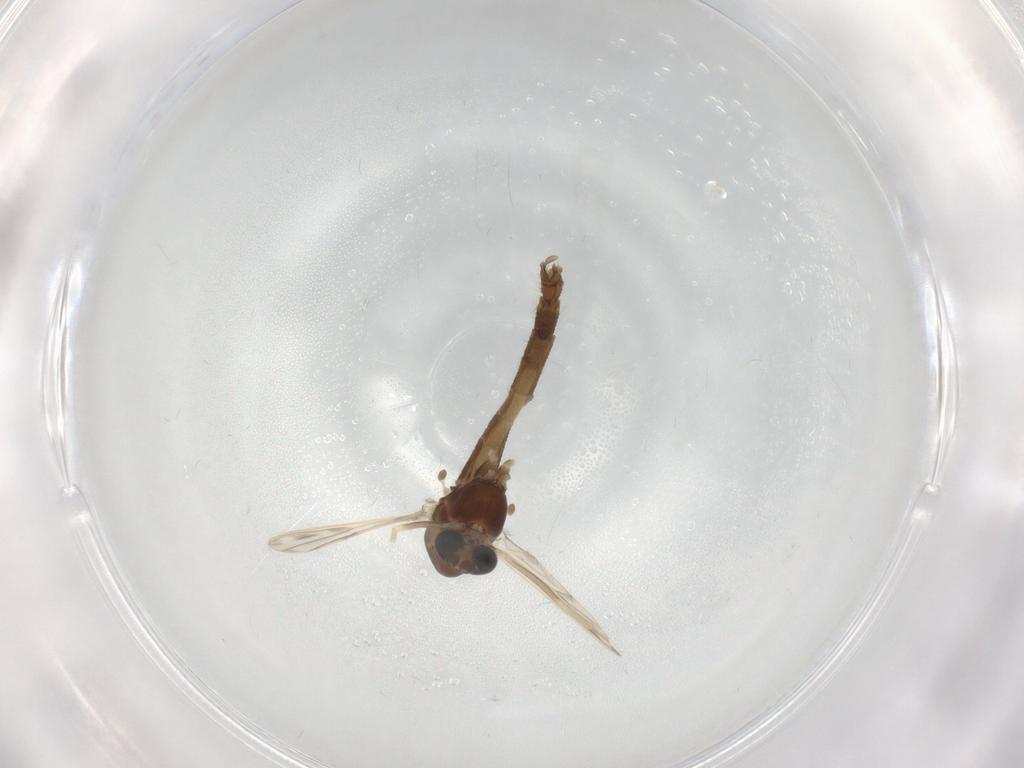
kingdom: Animalia
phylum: Arthropoda
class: Insecta
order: Diptera
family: Chironomidae
